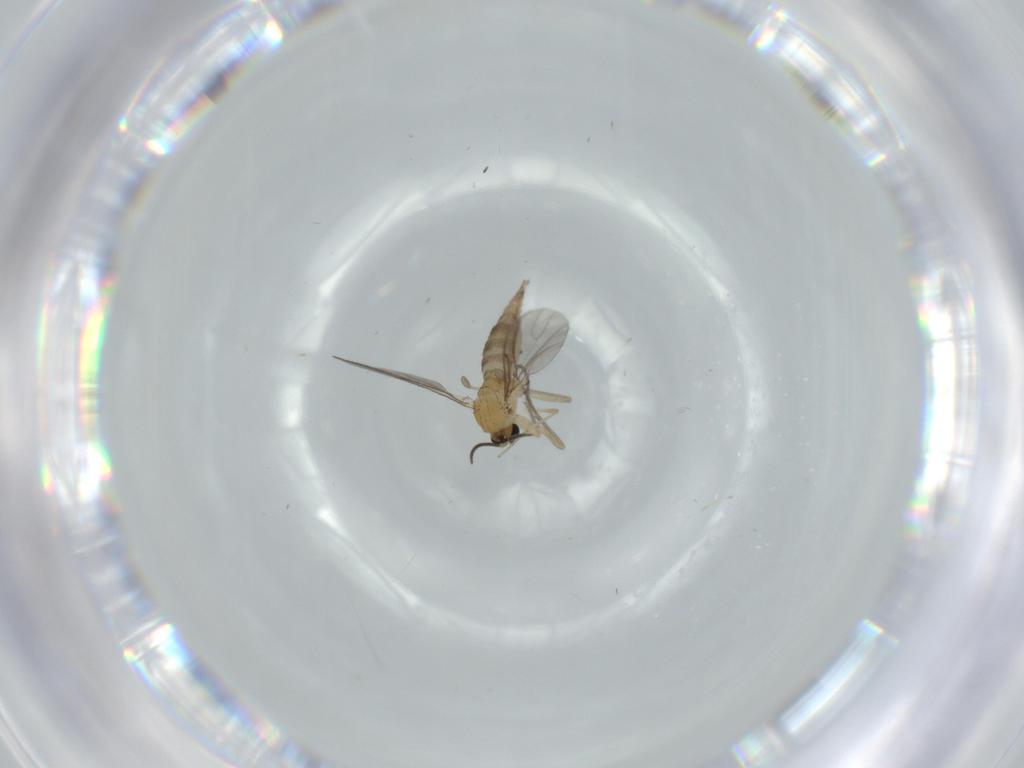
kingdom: Animalia
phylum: Arthropoda
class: Insecta
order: Diptera
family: Sciaridae
